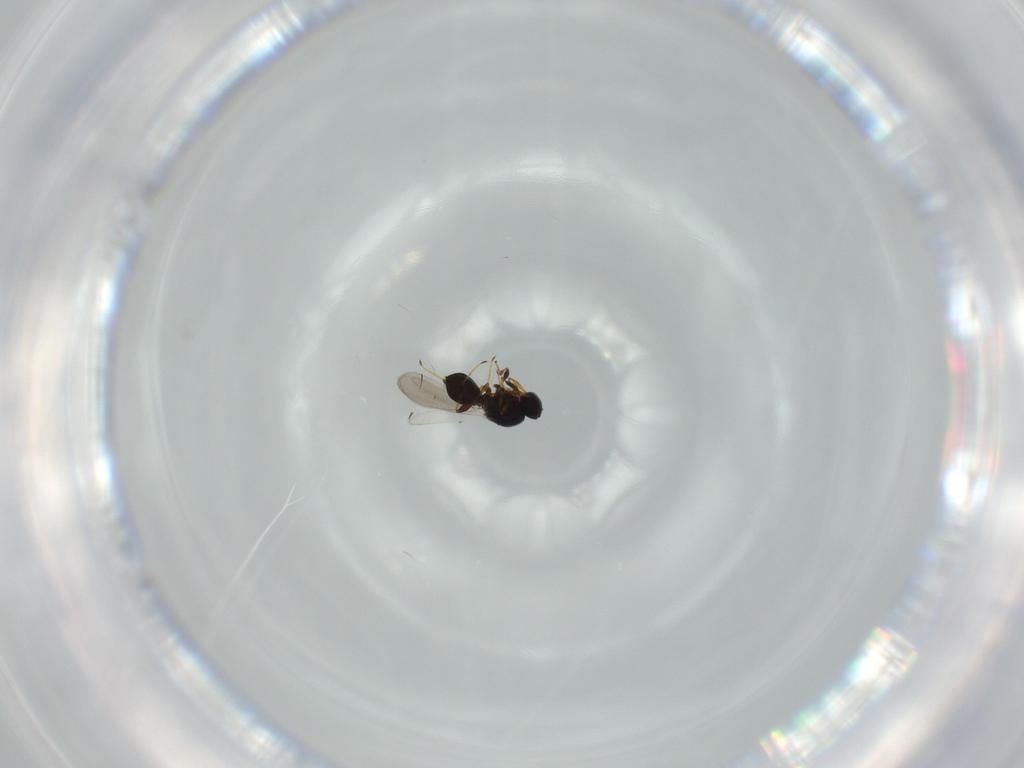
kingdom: Animalia
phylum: Arthropoda
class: Insecta
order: Hymenoptera
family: Platygastridae
